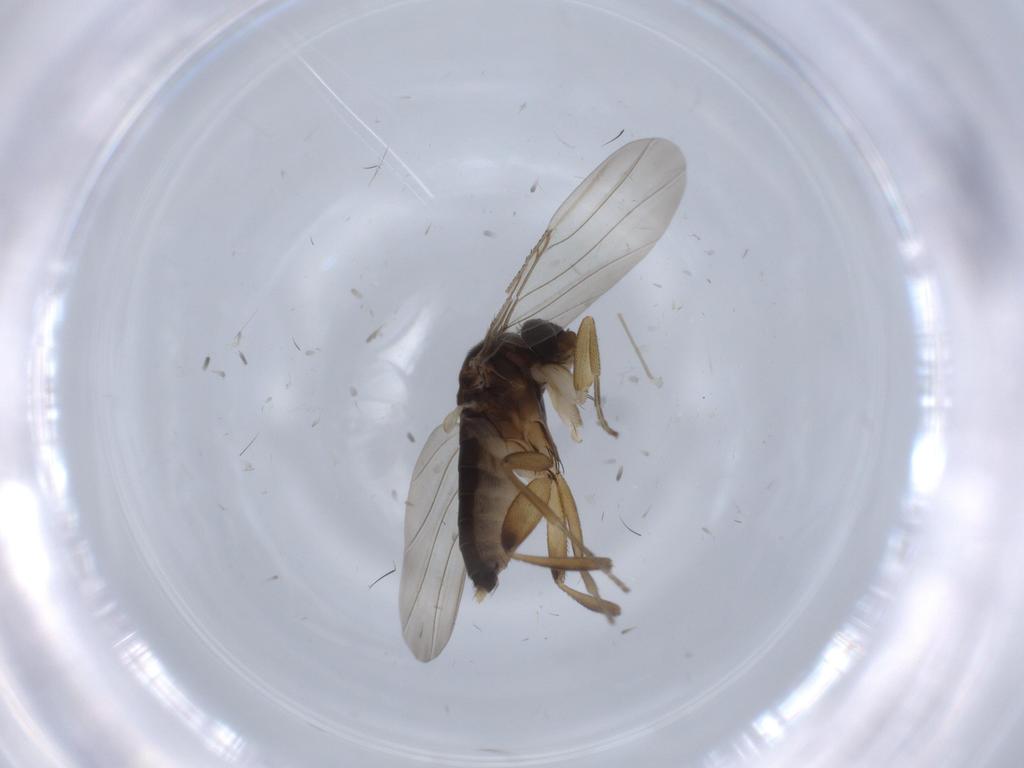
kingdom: Animalia
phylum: Arthropoda
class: Insecta
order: Diptera
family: Phoridae
